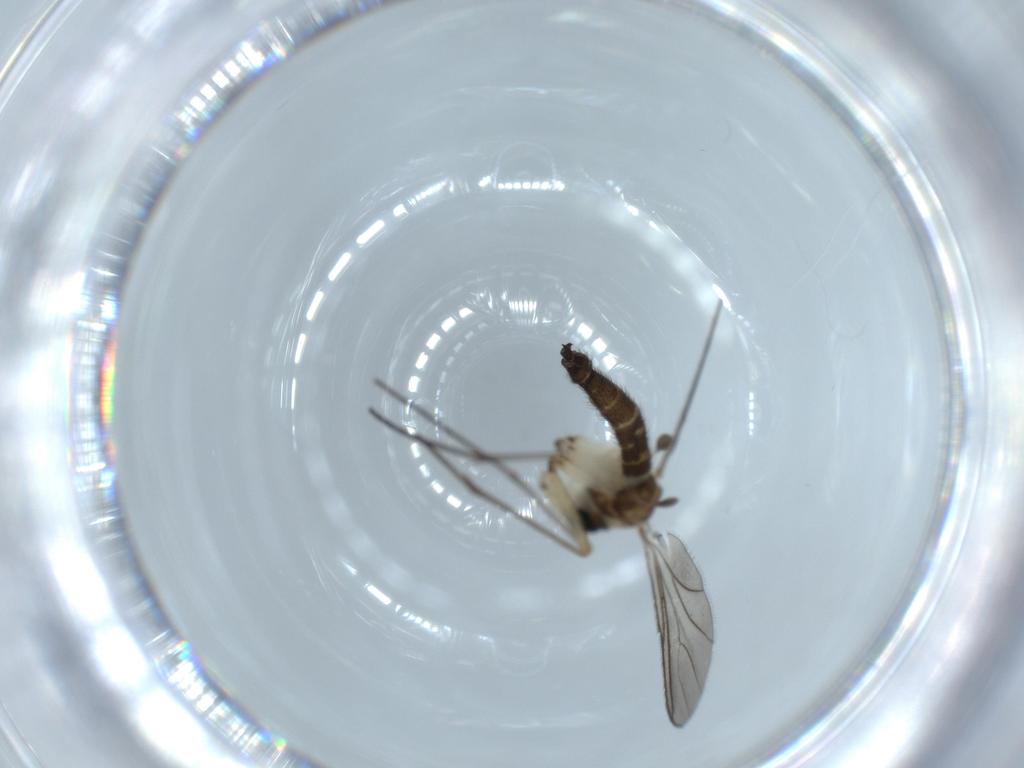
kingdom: Animalia
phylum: Arthropoda
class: Insecta
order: Diptera
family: Sciaridae
